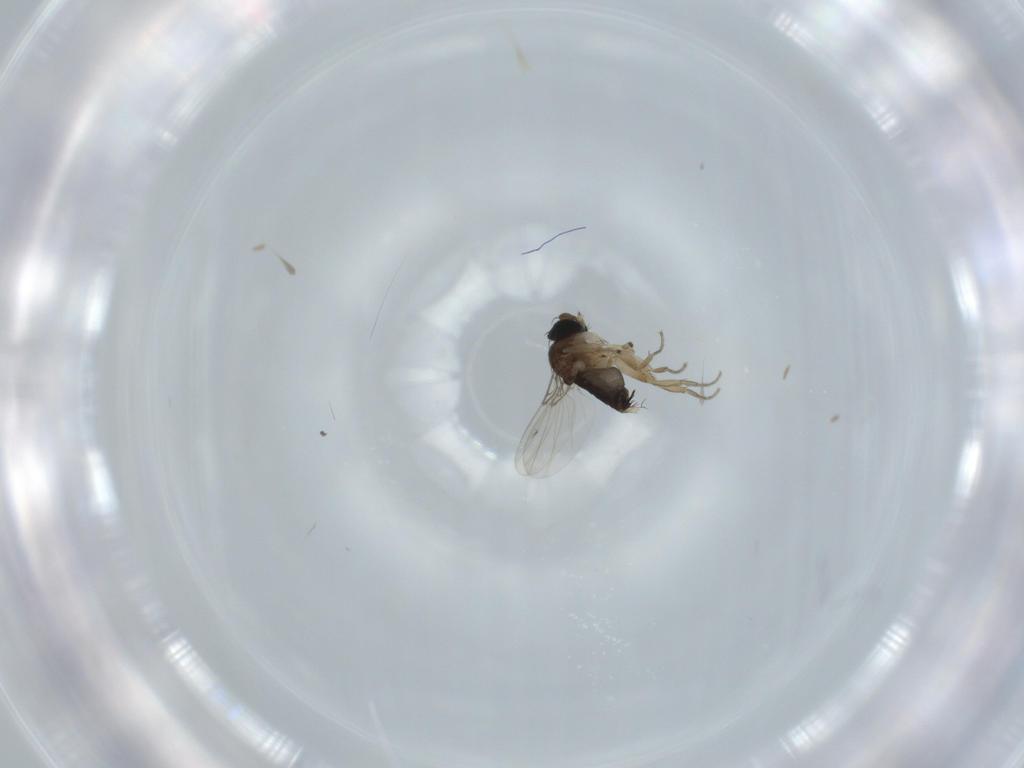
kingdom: Animalia
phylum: Arthropoda
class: Insecta
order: Diptera
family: Phoridae
